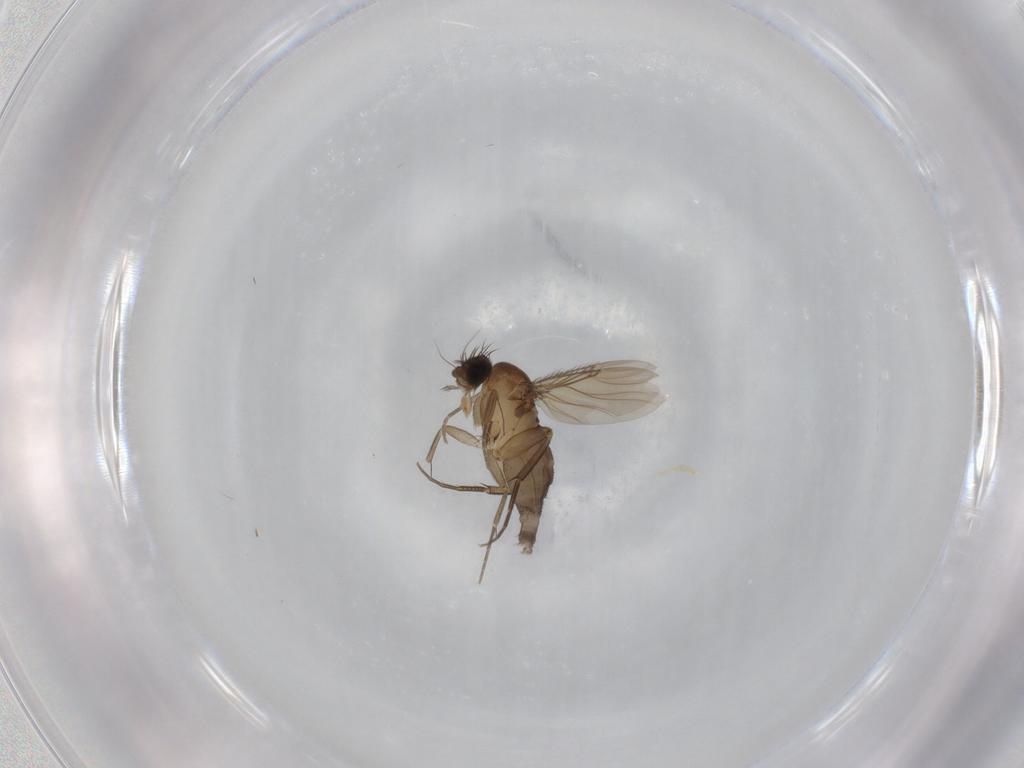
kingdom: Animalia
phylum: Arthropoda
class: Insecta
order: Diptera
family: Phoridae
